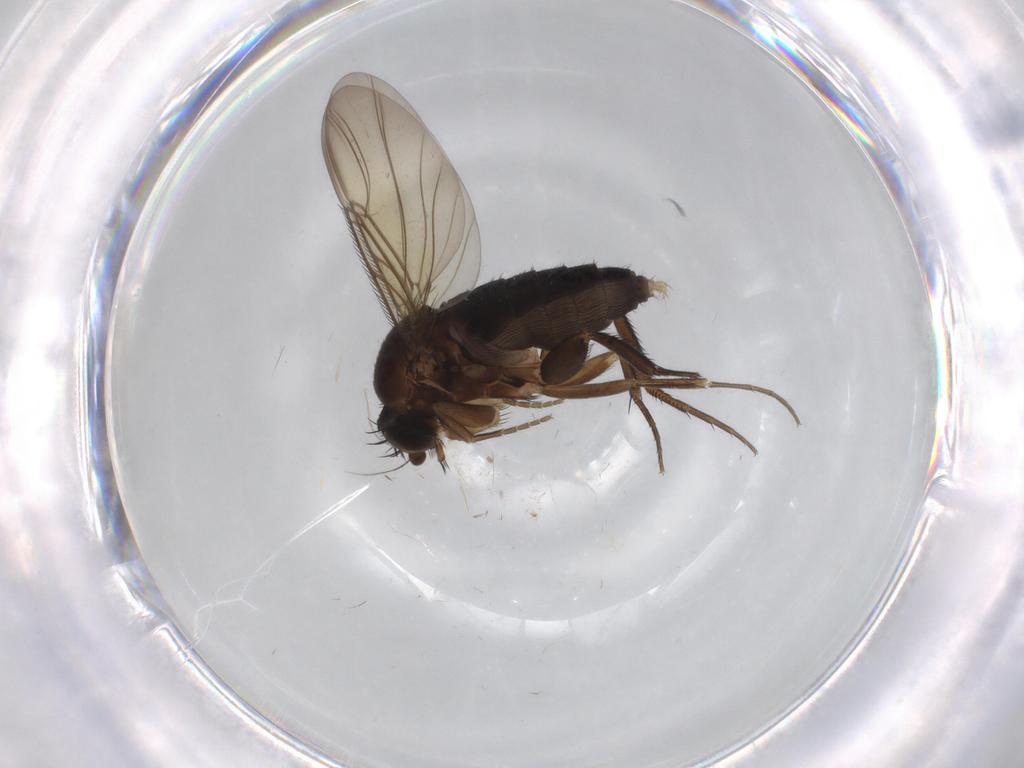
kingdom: Animalia
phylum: Arthropoda
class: Insecta
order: Diptera
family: Phoridae
